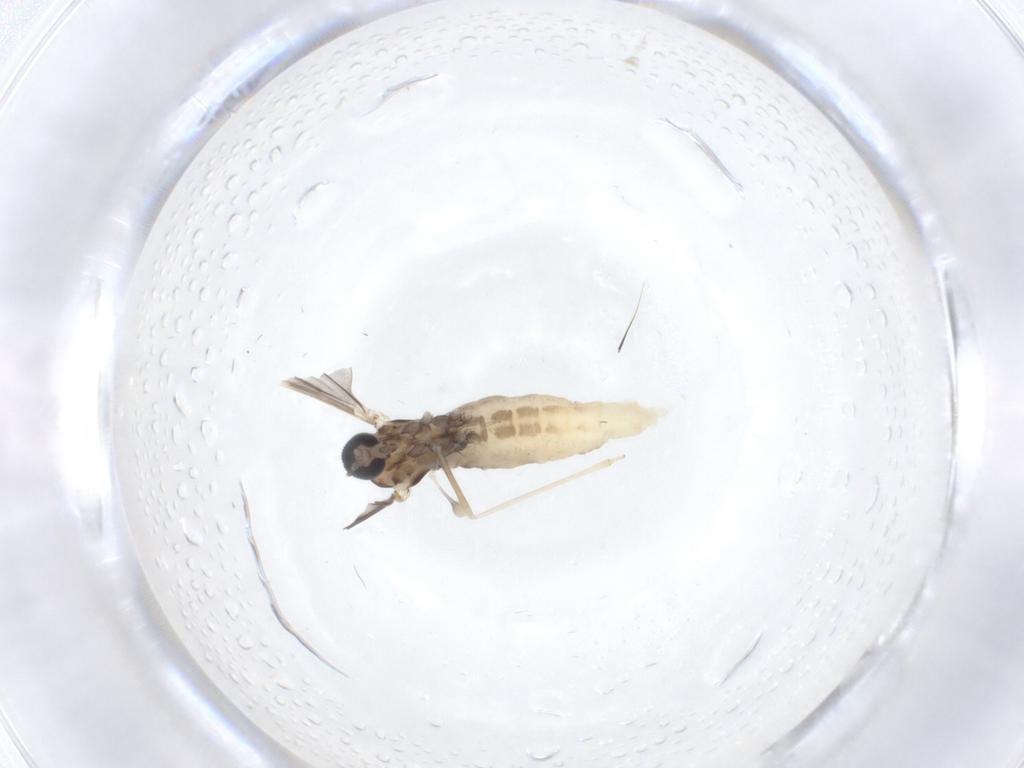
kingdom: Animalia
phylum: Arthropoda
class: Insecta
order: Diptera
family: Cecidomyiidae
